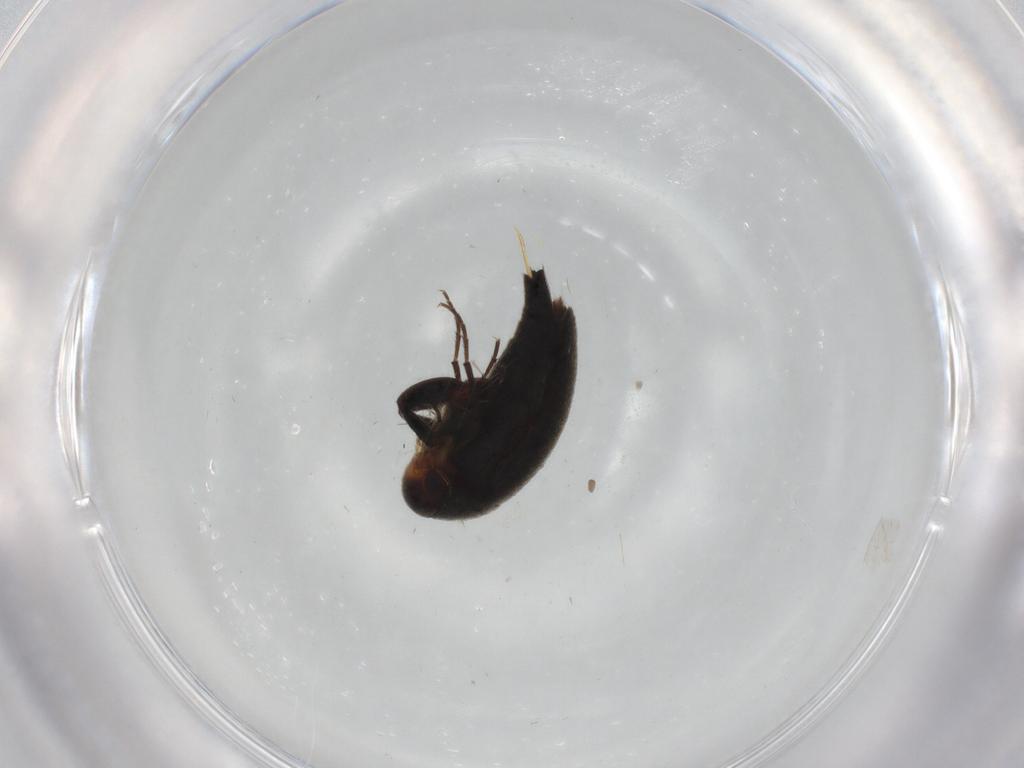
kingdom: Animalia
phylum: Arthropoda
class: Insecta
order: Coleoptera
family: Mordellidae
